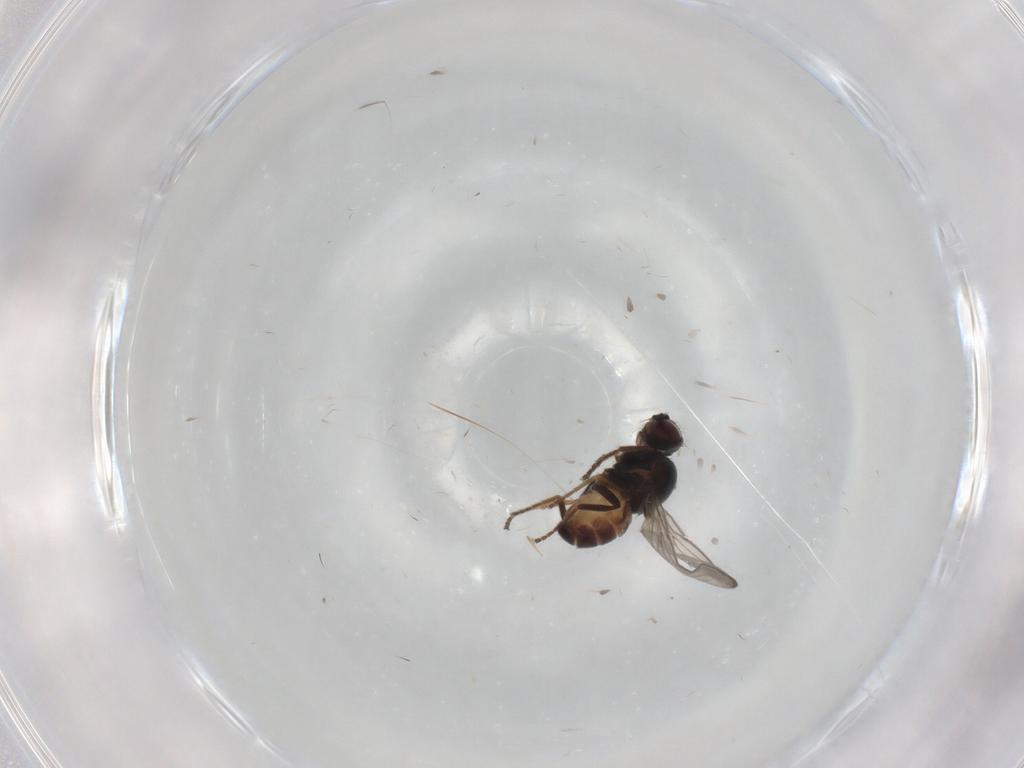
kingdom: Animalia
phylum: Arthropoda
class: Insecta
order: Diptera
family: Chloropidae
